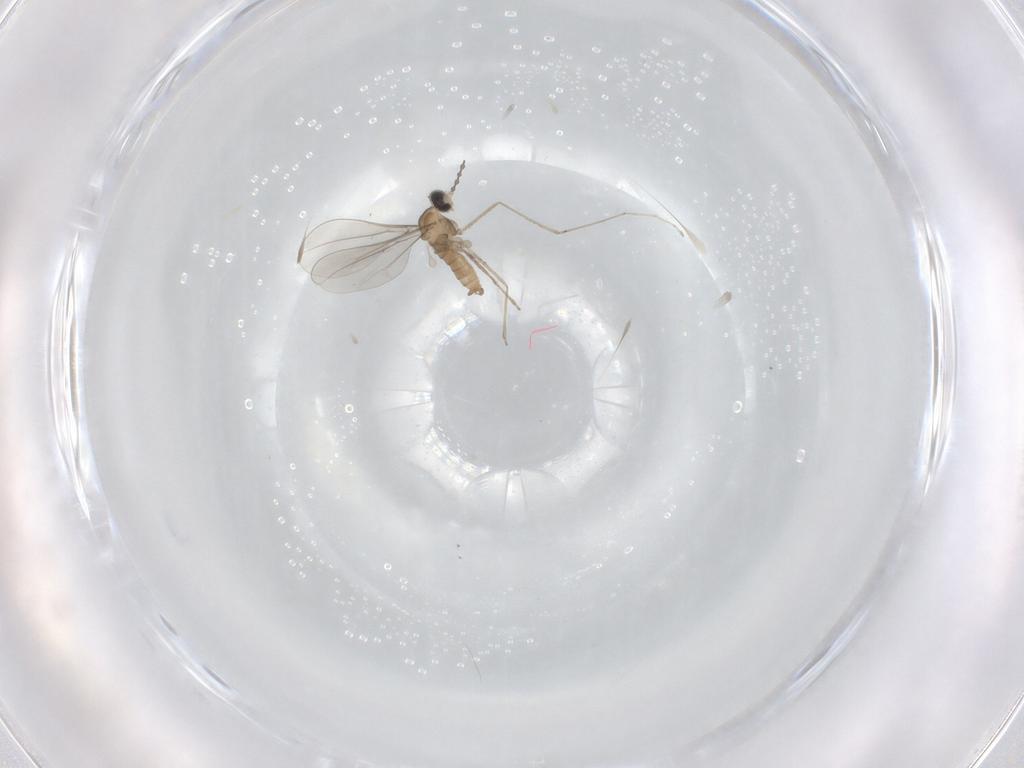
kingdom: Animalia
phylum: Arthropoda
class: Insecta
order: Diptera
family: Cecidomyiidae
